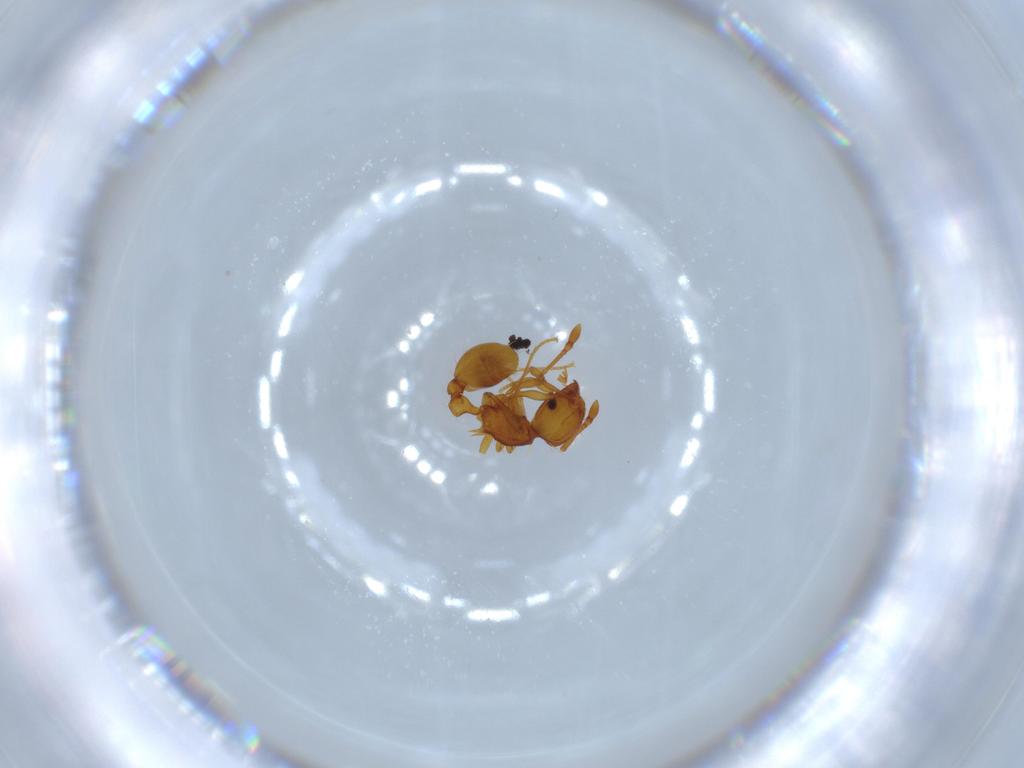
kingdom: Animalia
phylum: Arthropoda
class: Insecta
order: Hymenoptera
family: Formicidae
